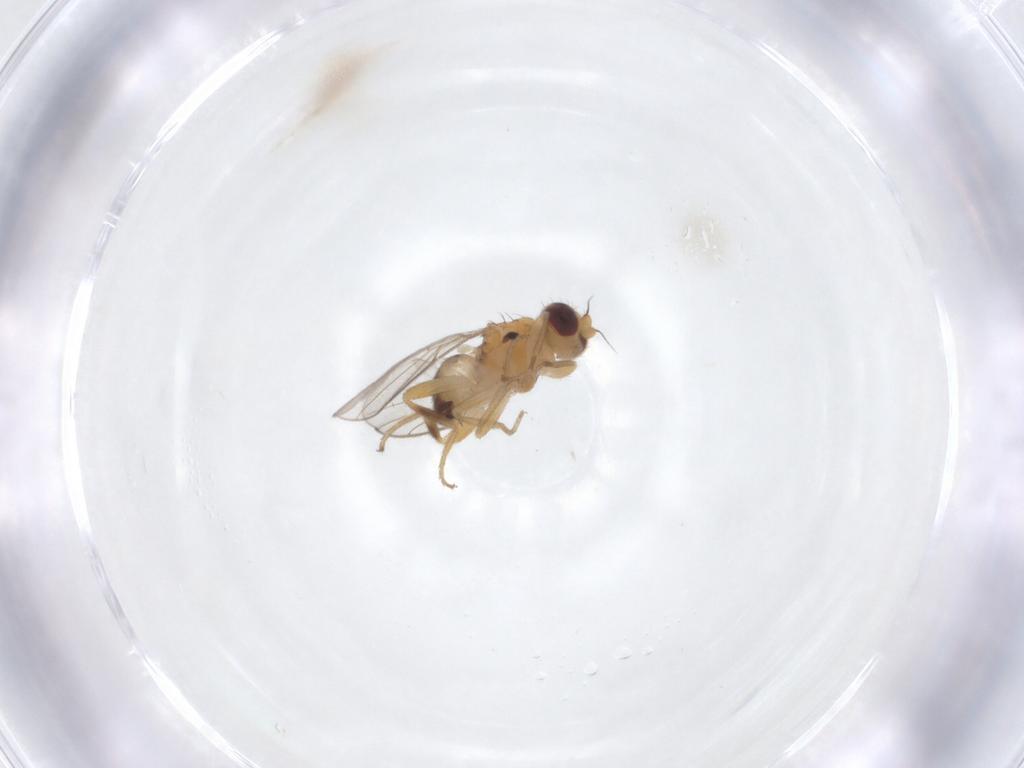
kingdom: Animalia
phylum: Arthropoda
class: Insecta
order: Diptera
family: Chloropidae
